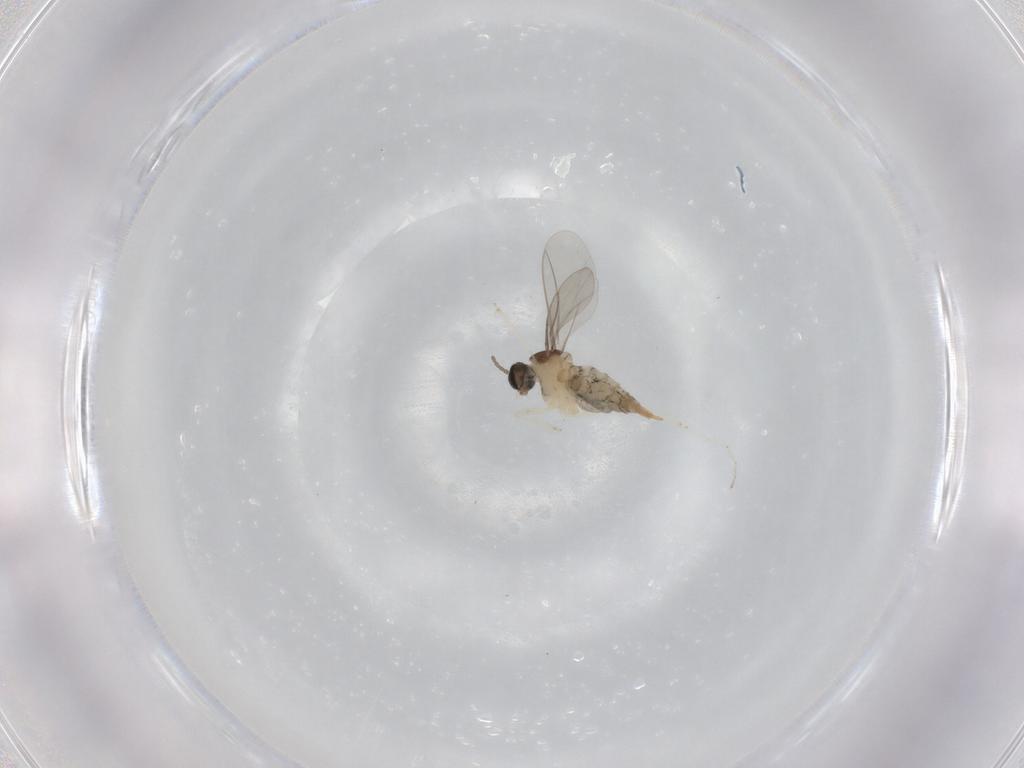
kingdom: Animalia
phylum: Arthropoda
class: Insecta
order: Diptera
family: Cecidomyiidae
